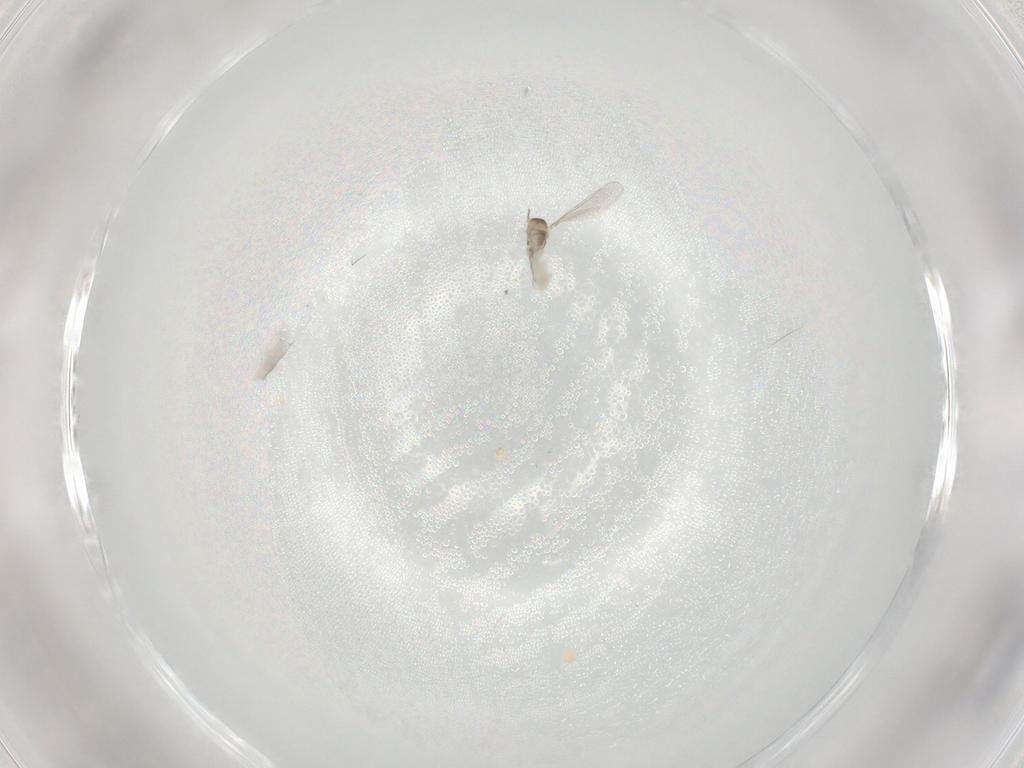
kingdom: Animalia
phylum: Arthropoda
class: Insecta
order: Diptera
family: Cecidomyiidae
